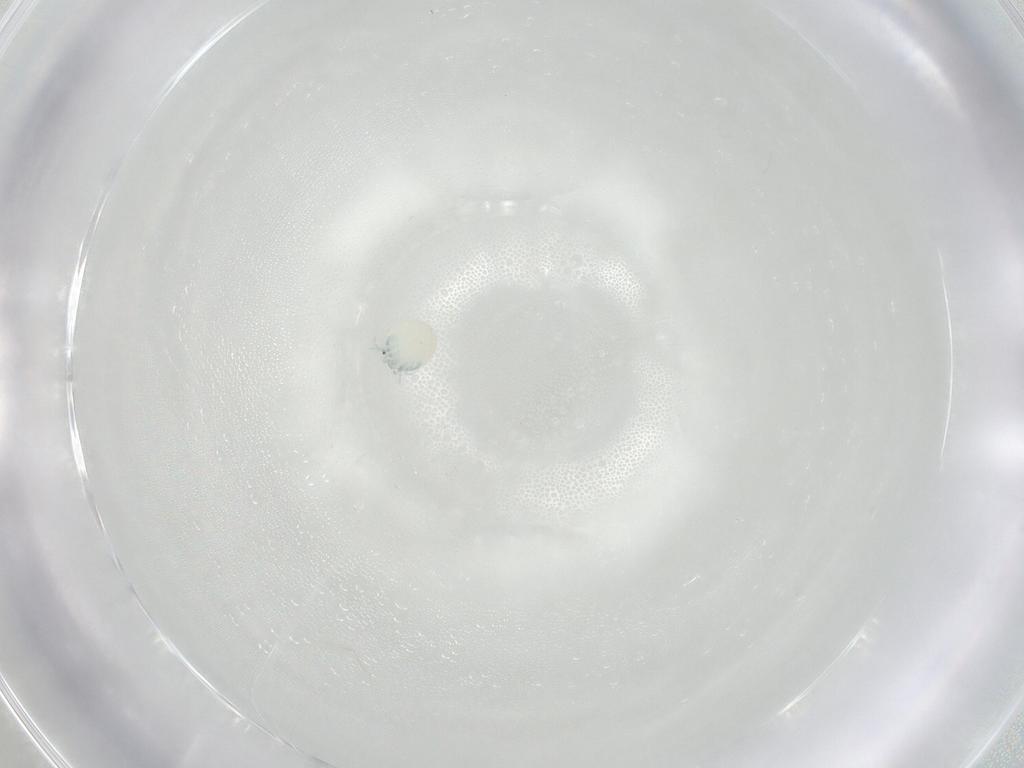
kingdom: Animalia
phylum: Arthropoda
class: Arachnida
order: Trombidiformes
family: Arrenuridae
